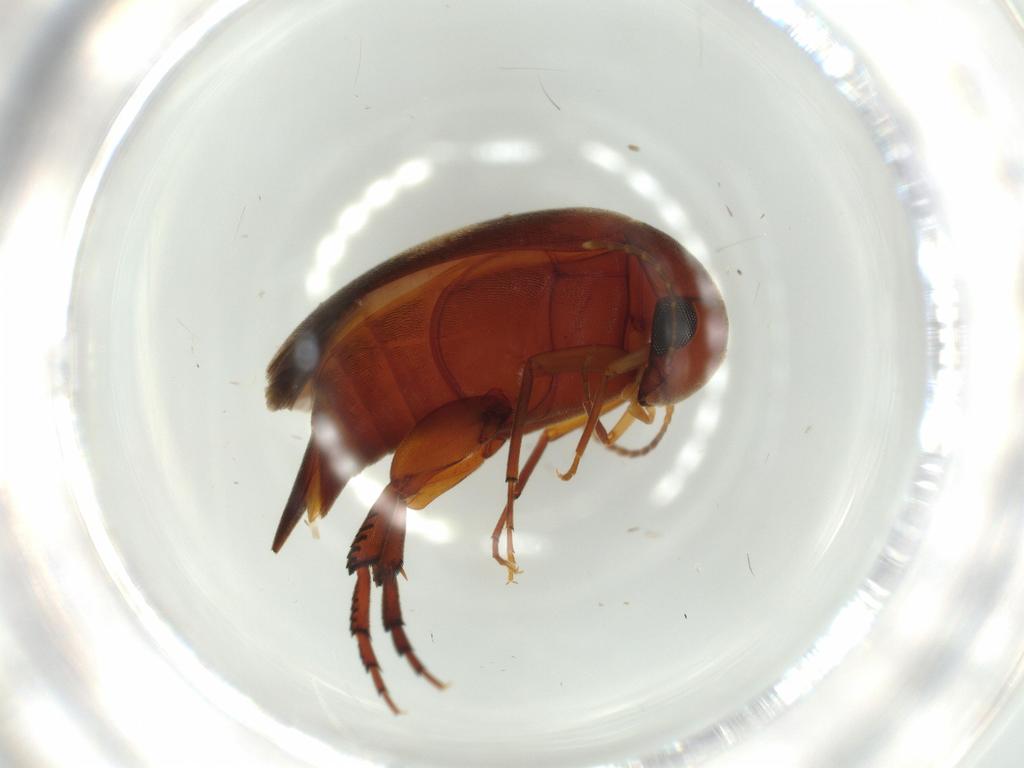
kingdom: Animalia
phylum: Arthropoda
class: Insecta
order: Coleoptera
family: Mordellidae
